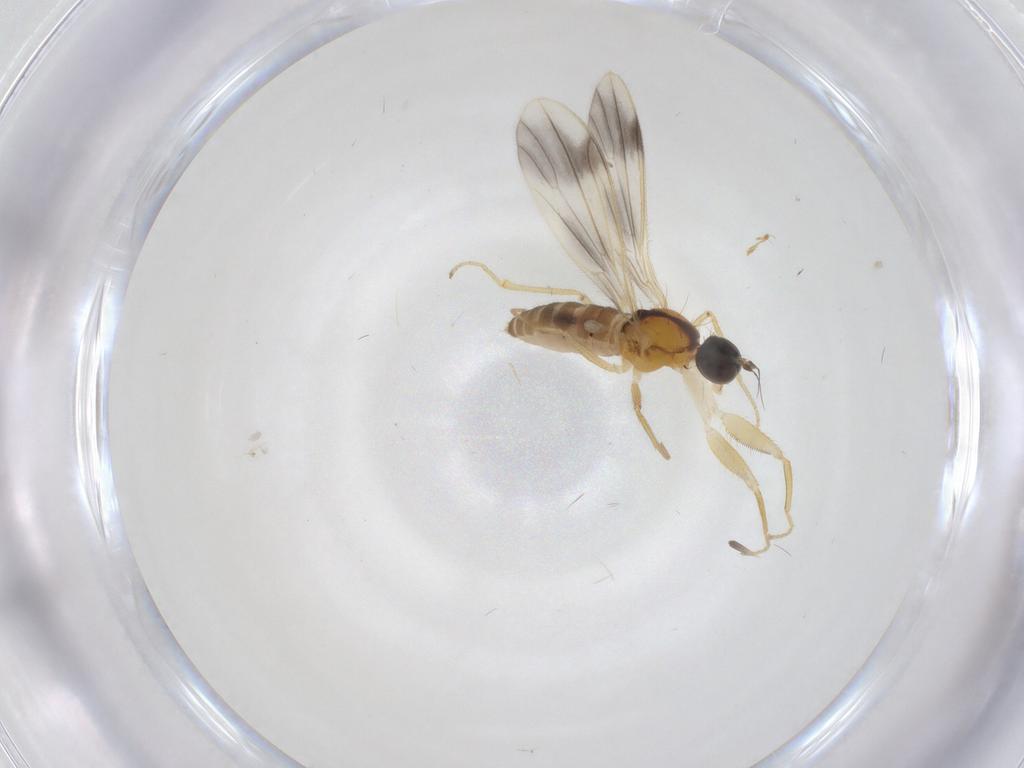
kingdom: Animalia
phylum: Arthropoda
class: Insecta
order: Diptera
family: Empididae
